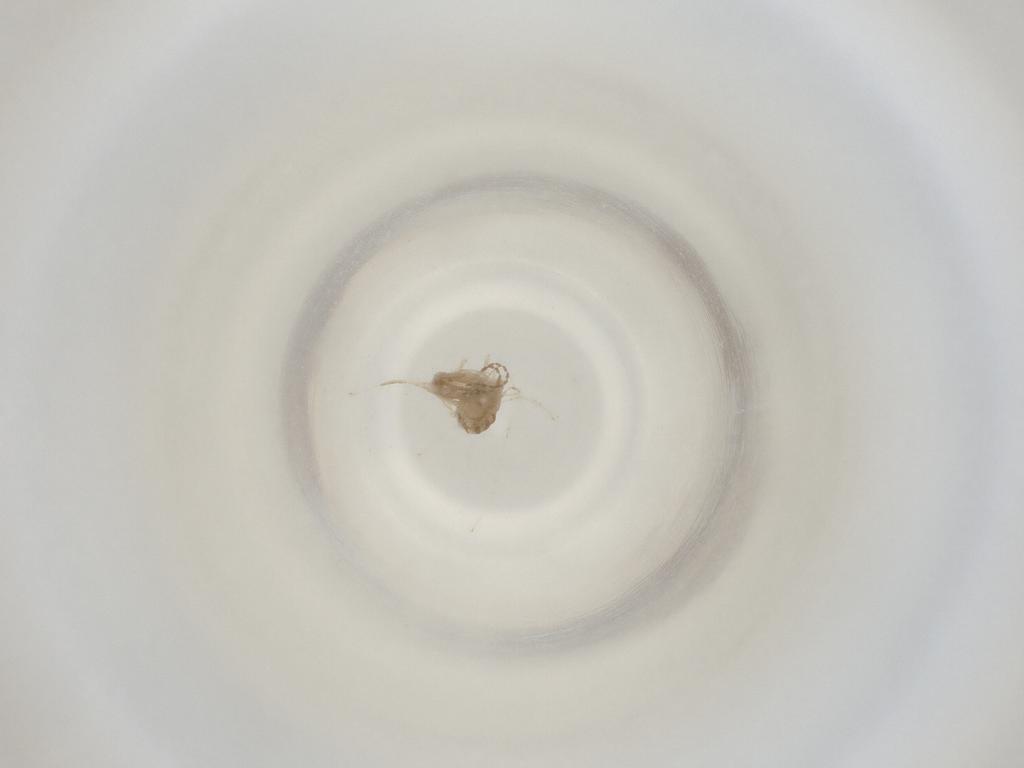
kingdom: Animalia
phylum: Arthropoda
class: Insecta
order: Diptera
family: Cecidomyiidae
